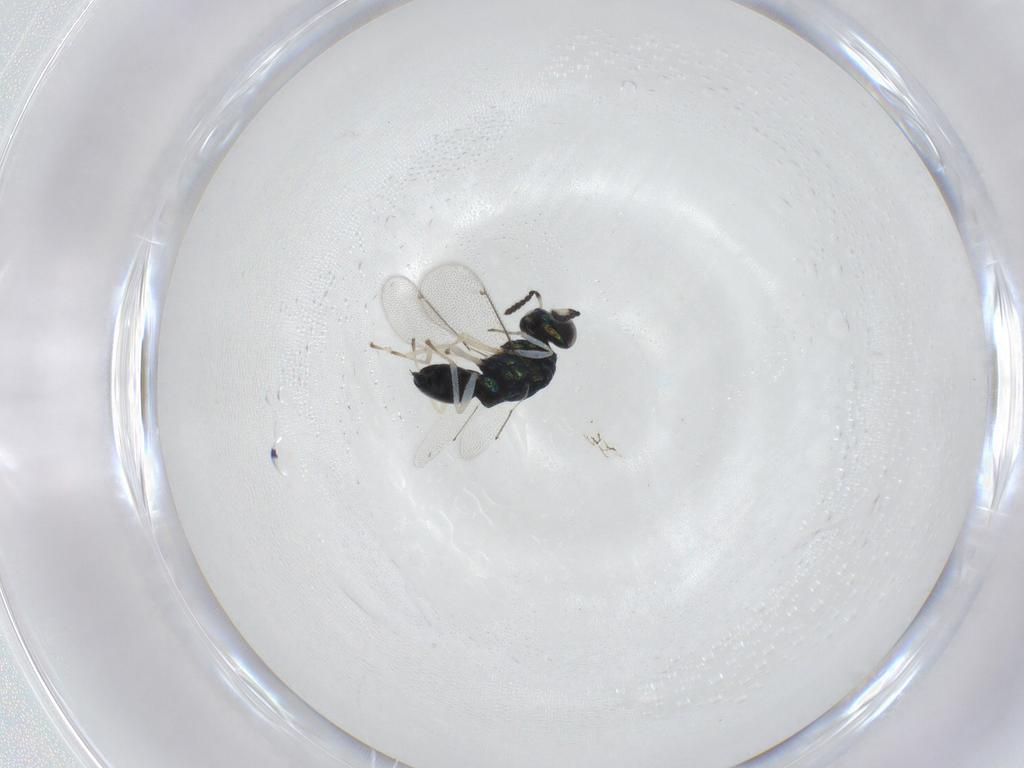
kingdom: Animalia
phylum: Arthropoda
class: Insecta
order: Hymenoptera
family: Eulophidae
